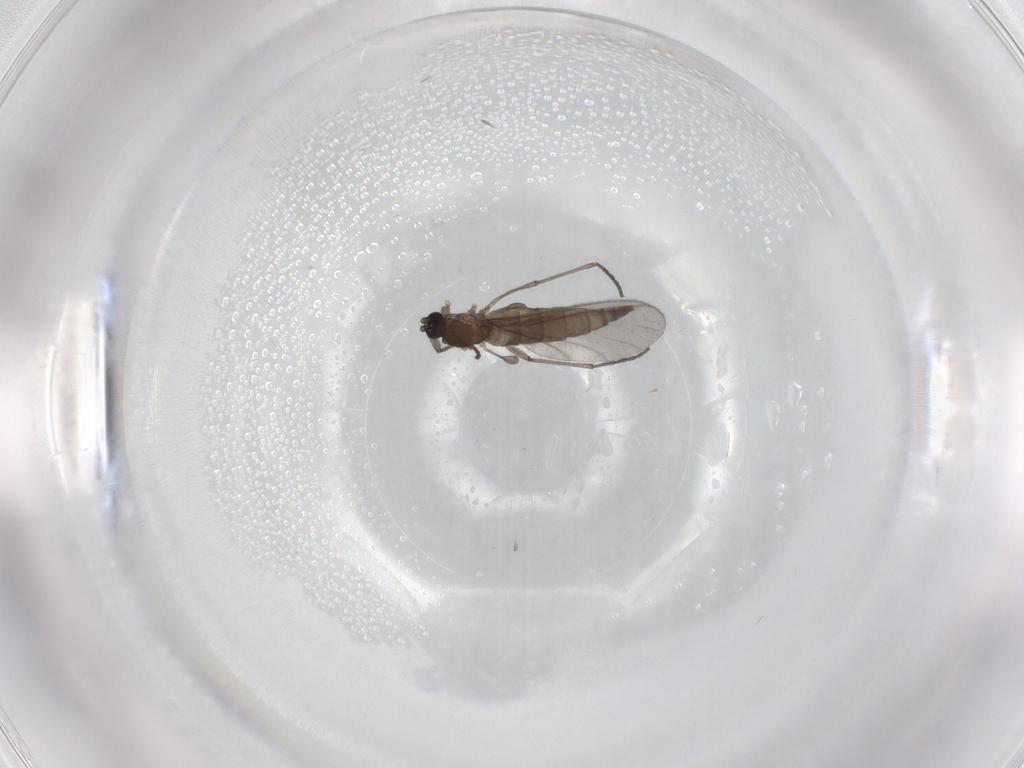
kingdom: Animalia
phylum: Arthropoda
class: Insecta
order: Diptera
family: Sciaridae
